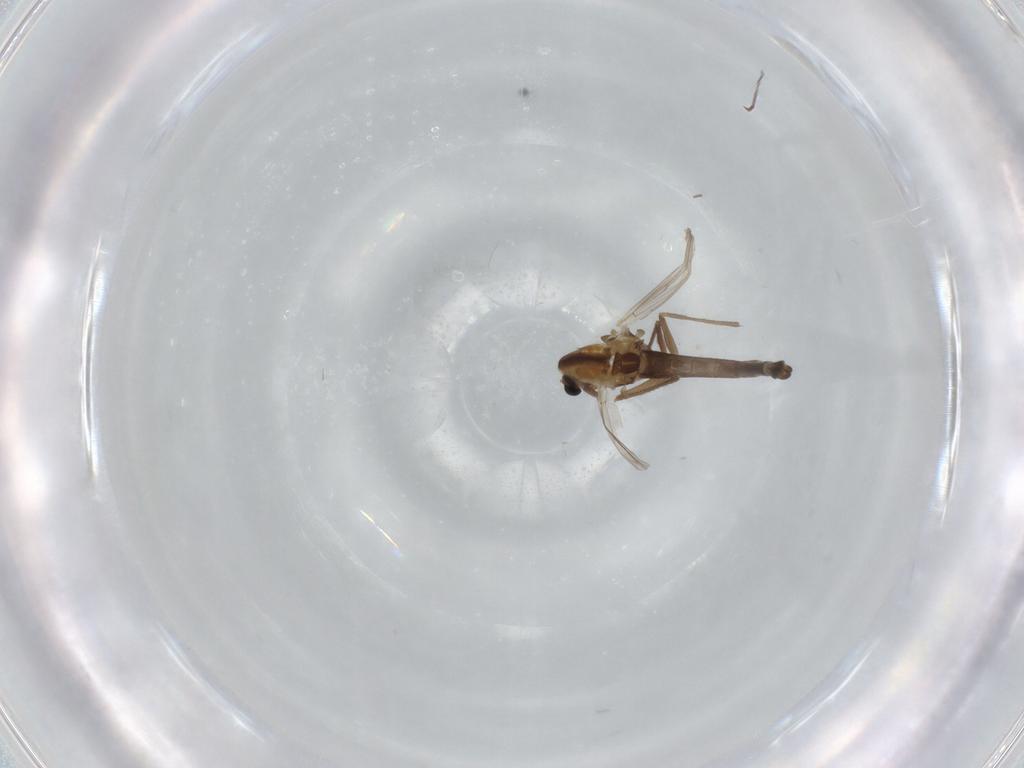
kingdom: Animalia
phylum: Arthropoda
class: Insecta
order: Diptera
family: Chironomidae
